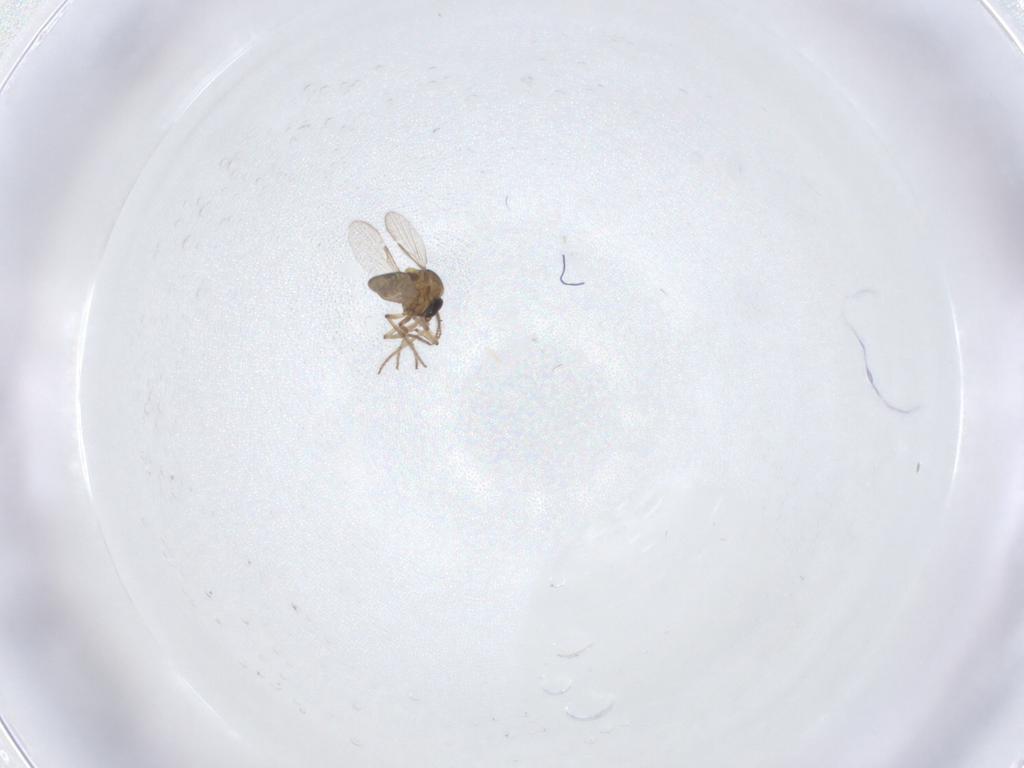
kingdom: Animalia
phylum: Arthropoda
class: Insecta
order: Diptera
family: Ceratopogonidae
